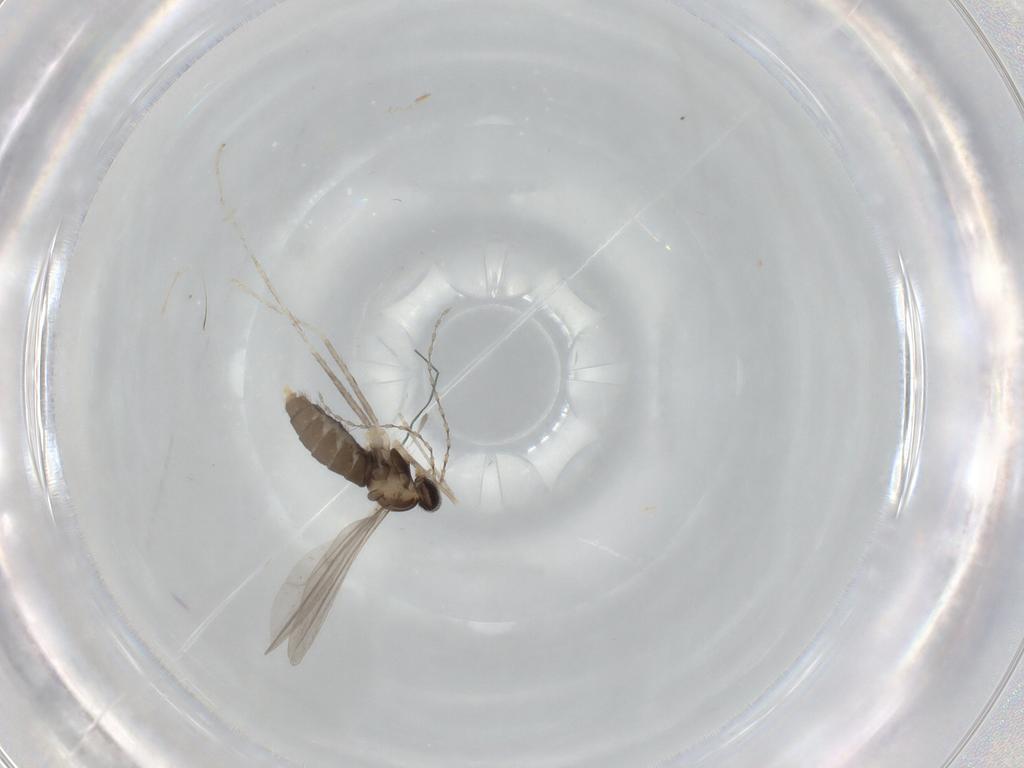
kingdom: Animalia
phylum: Arthropoda
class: Insecta
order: Diptera
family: Cecidomyiidae
